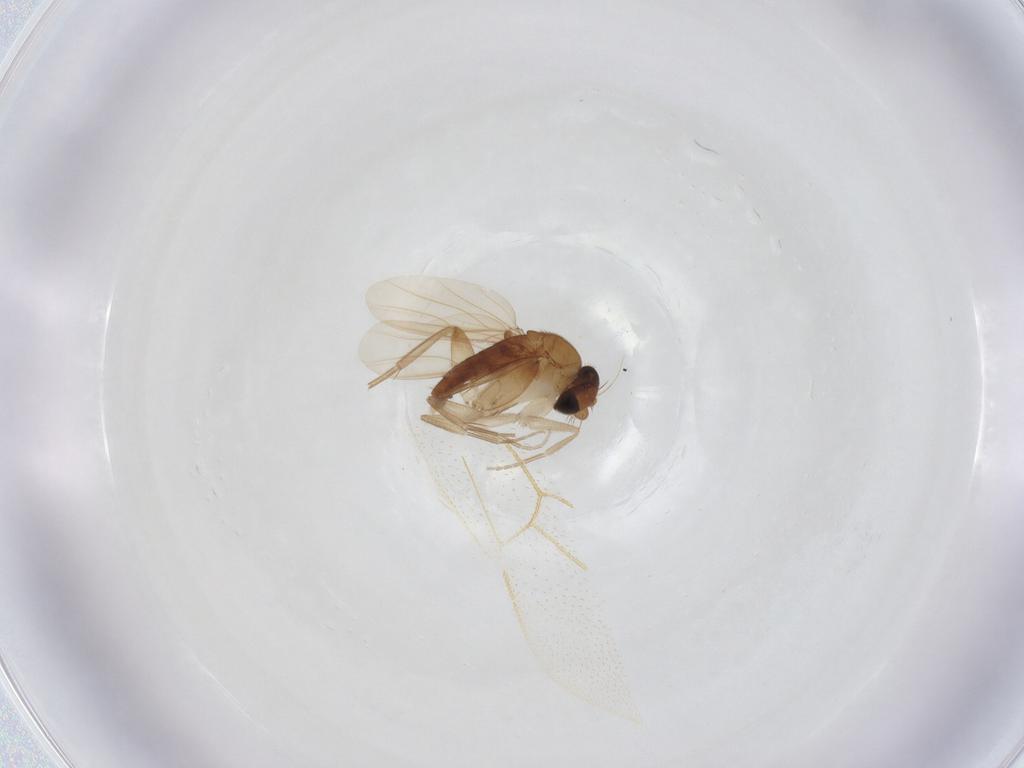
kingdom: Animalia
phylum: Arthropoda
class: Insecta
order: Diptera
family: Phoridae
